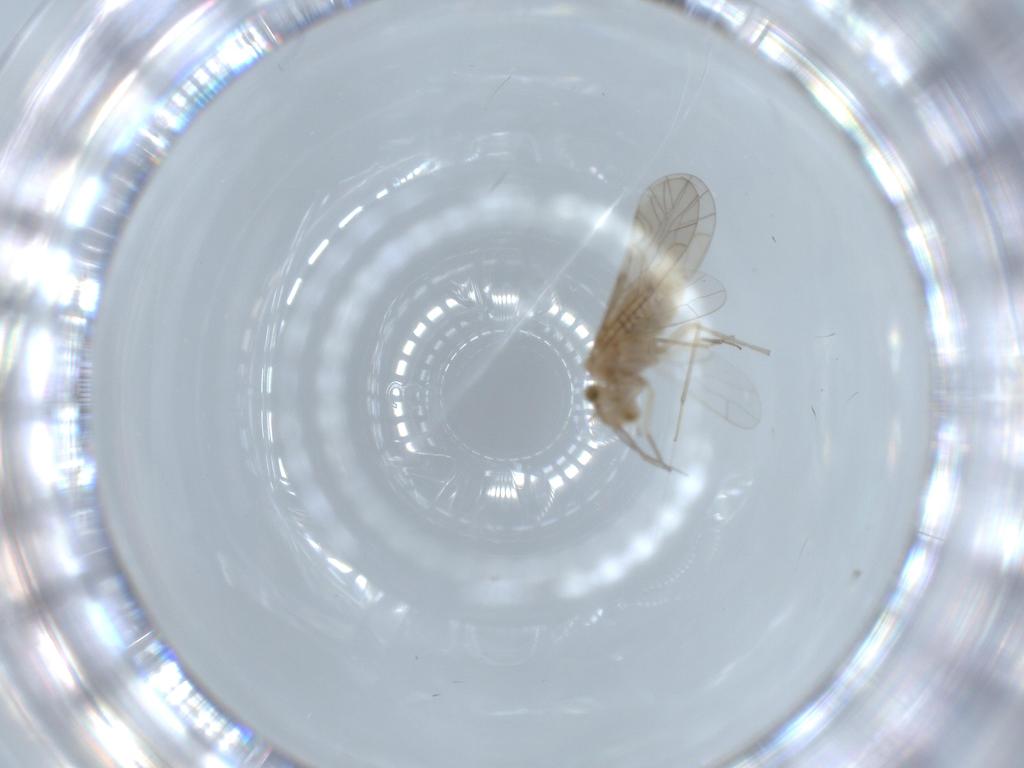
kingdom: Animalia
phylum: Arthropoda
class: Insecta
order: Psocodea
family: Lachesillidae
